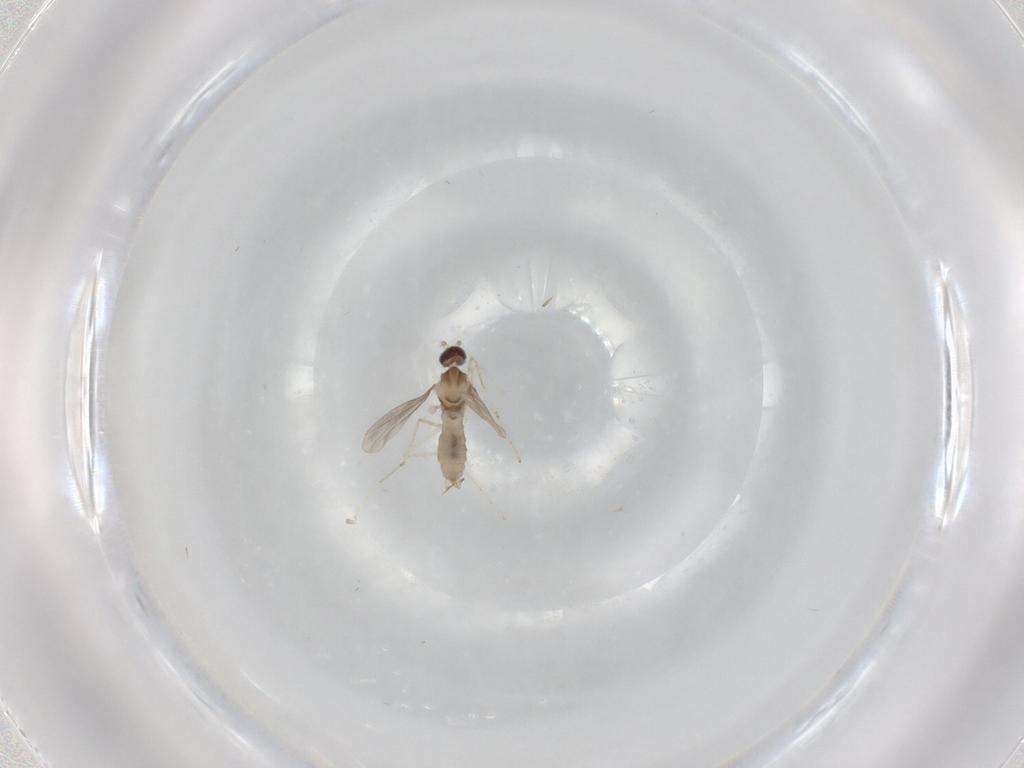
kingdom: Animalia
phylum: Arthropoda
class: Insecta
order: Diptera
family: Cecidomyiidae
